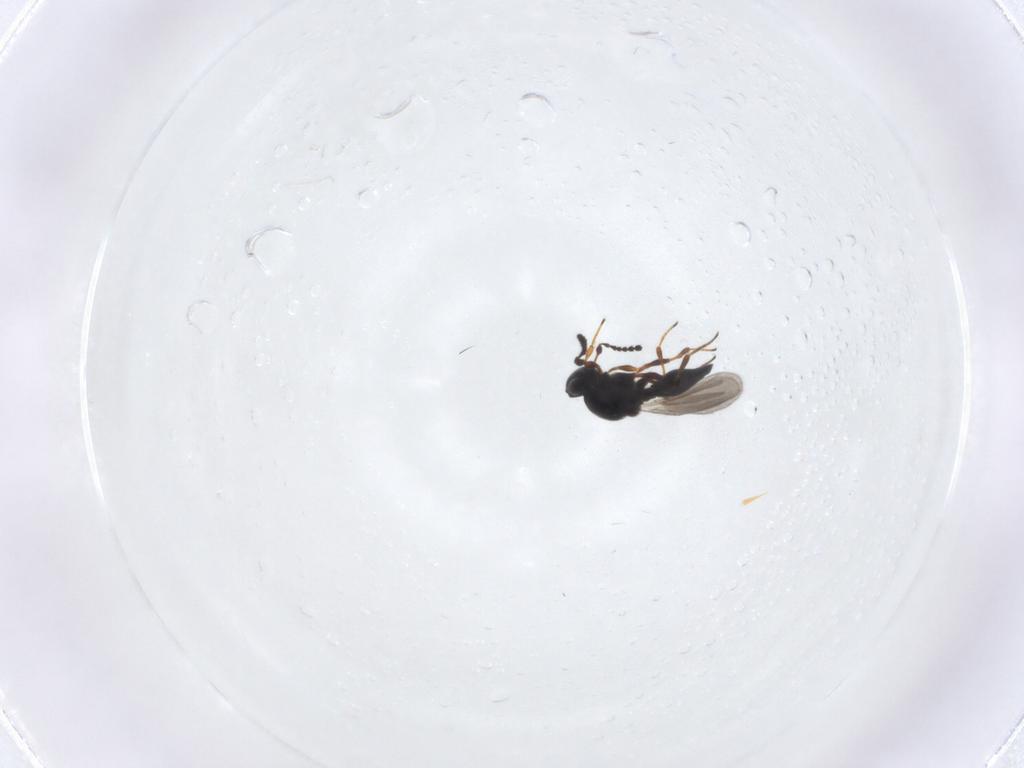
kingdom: Animalia
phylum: Arthropoda
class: Insecta
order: Hymenoptera
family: Platygastridae
